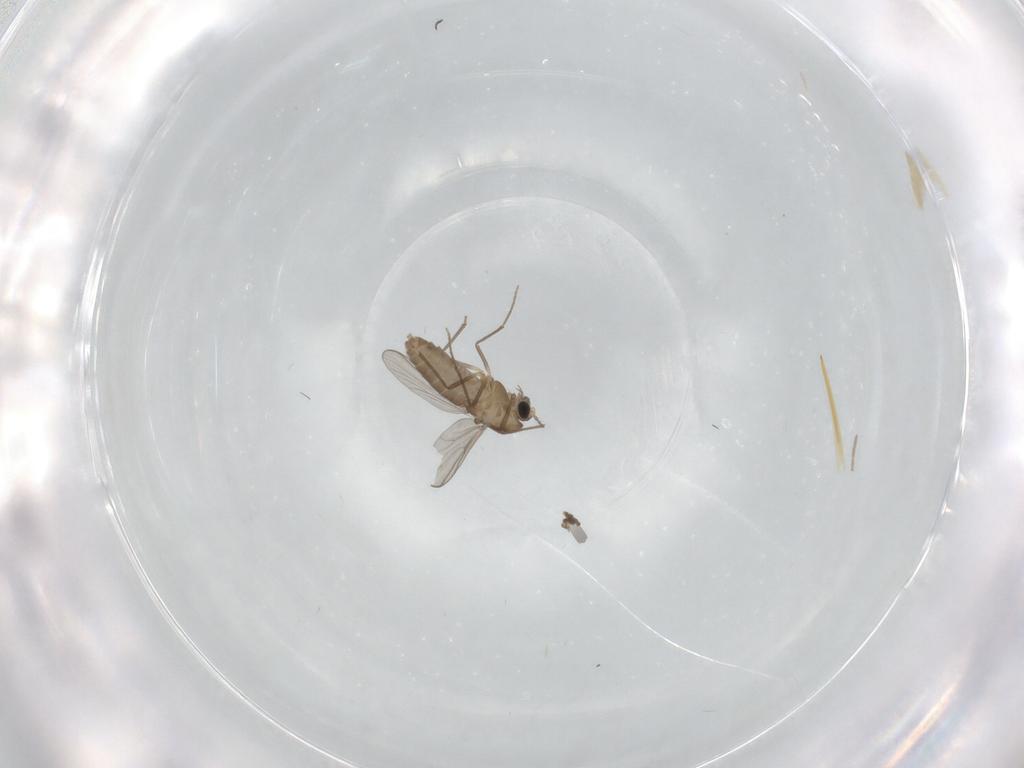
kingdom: Animalia
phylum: Arthropoda
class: Insecta
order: Diptera
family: Chironomidae
